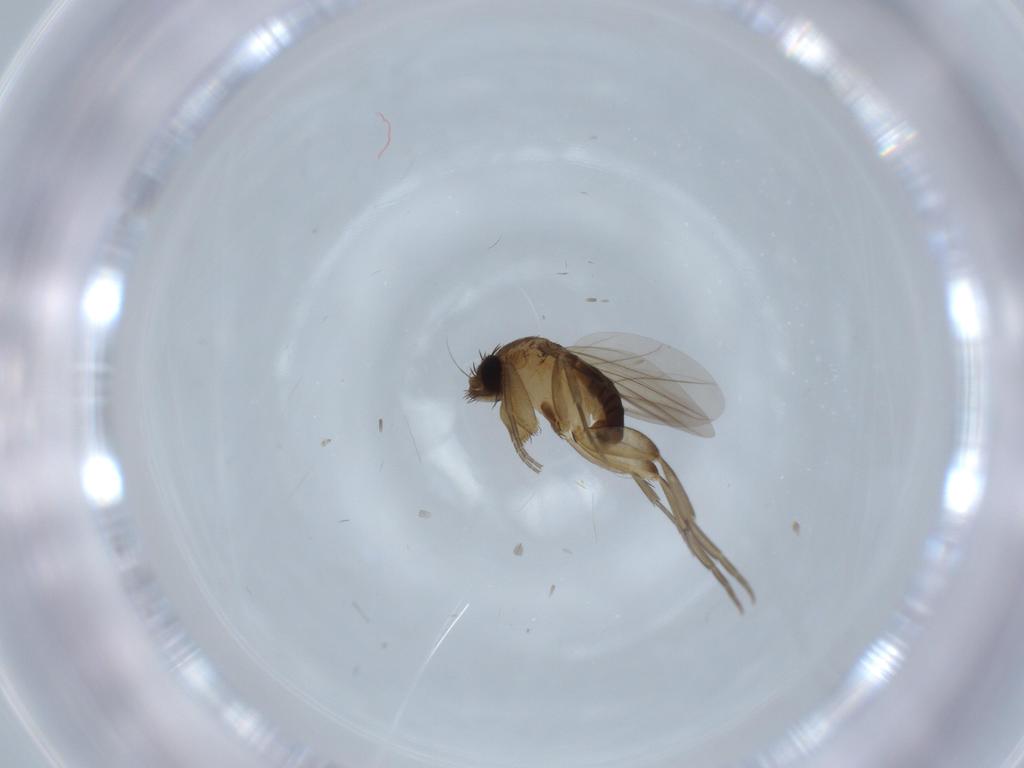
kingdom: Animalia
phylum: Arthropoda
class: Insecta
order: Diptera
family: Phoridae
